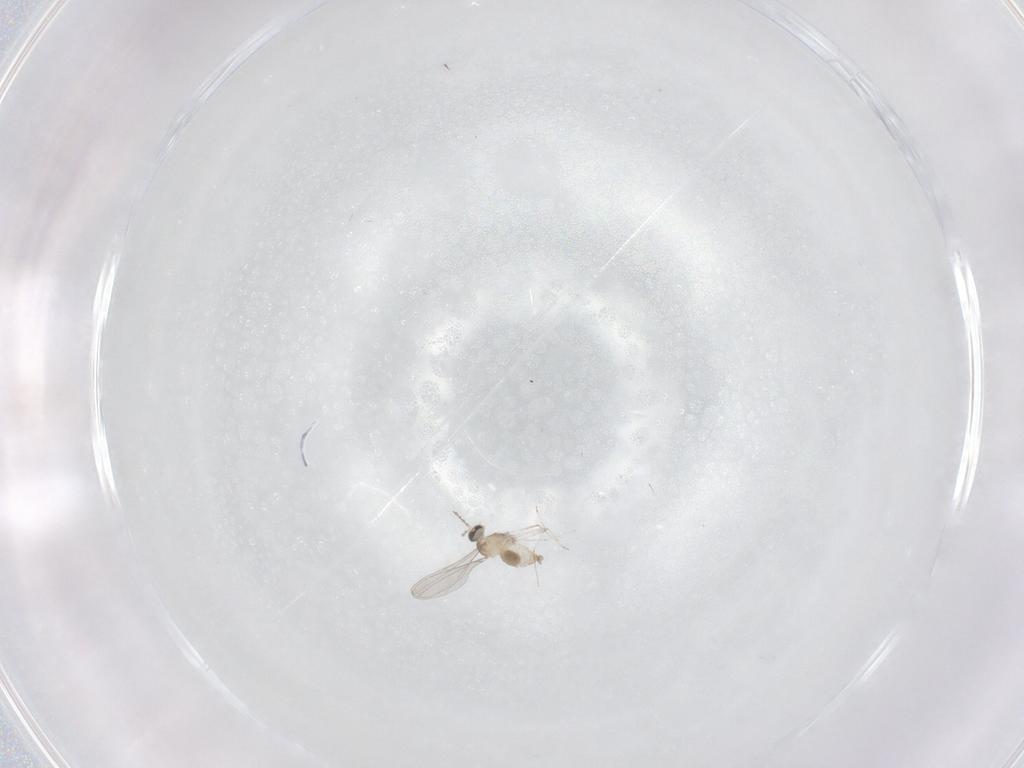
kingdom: Animalia
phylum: Arthropoda
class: Insecta
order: Diptera
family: Cecidomyiidae
